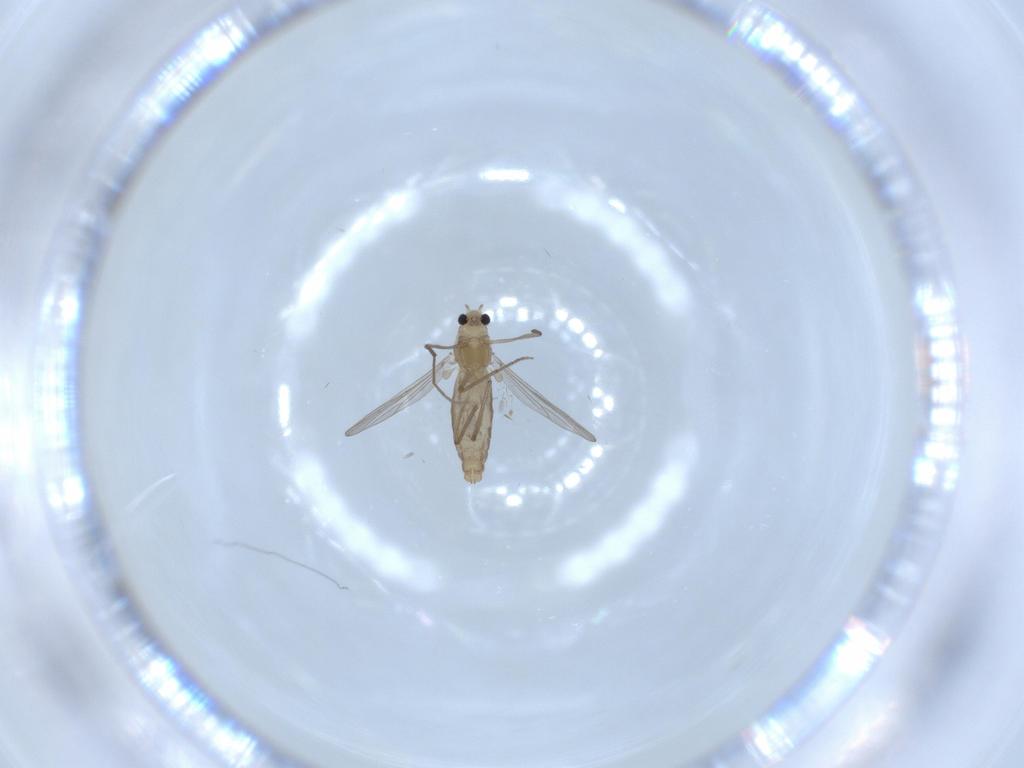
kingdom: Animalia
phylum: Arthropoda
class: Insecta
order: Diptera
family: Chironomidae
